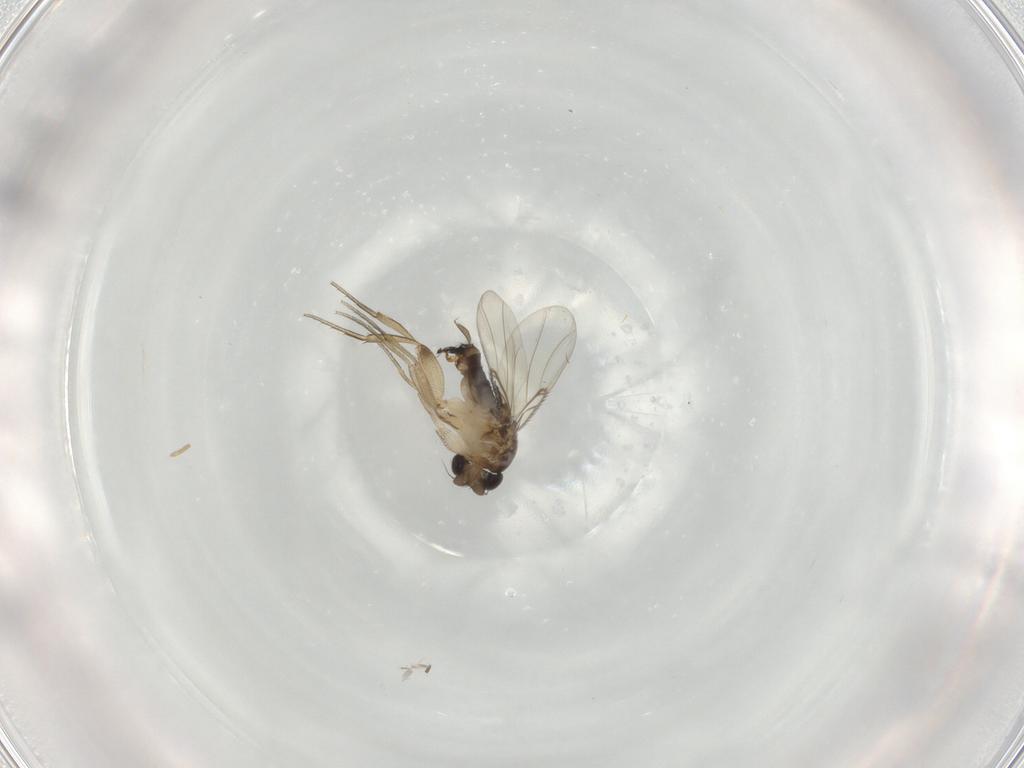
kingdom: Animalia
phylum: Arthropoda
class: Insecta
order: Diptera
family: Phoridae
